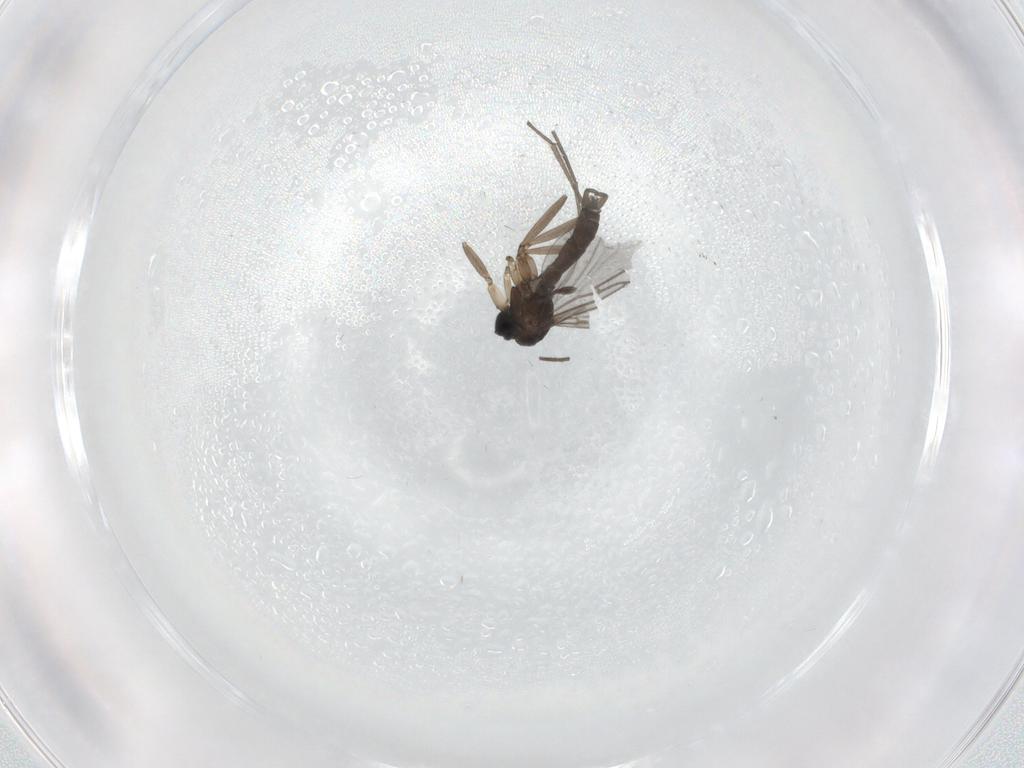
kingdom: Animalia
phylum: Arthropoda
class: Insecta
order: Diptera
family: Sciaridae
